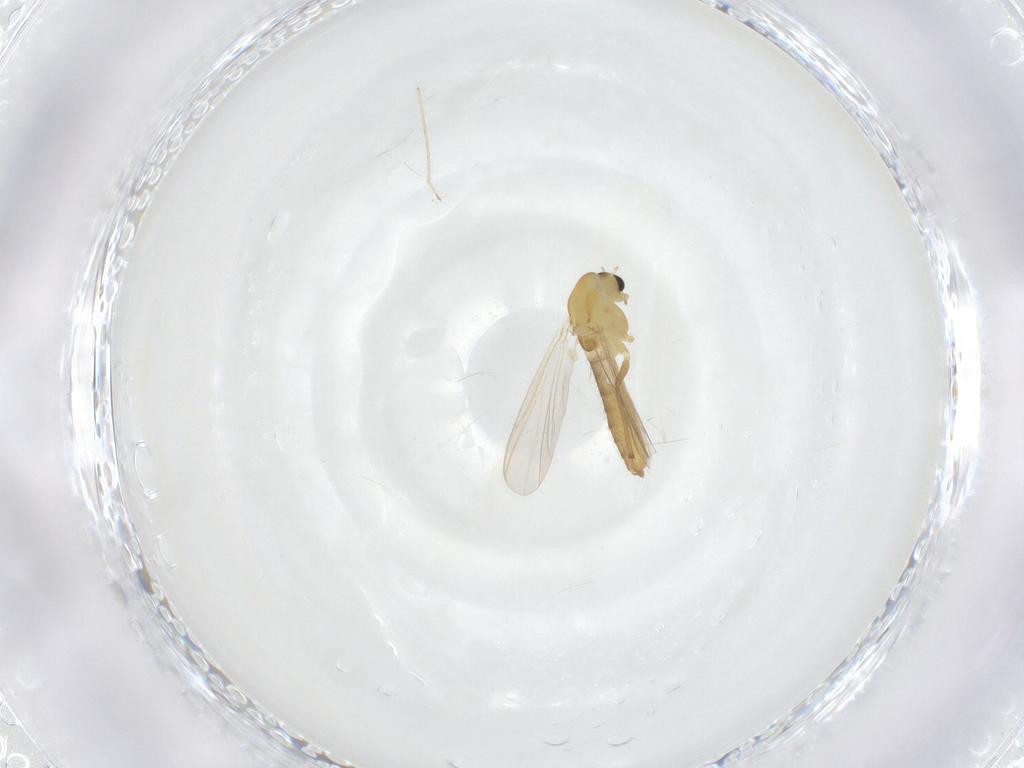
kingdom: Animalia
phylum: Arthropoda
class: Insecta
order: Diptera
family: Chironomidae
